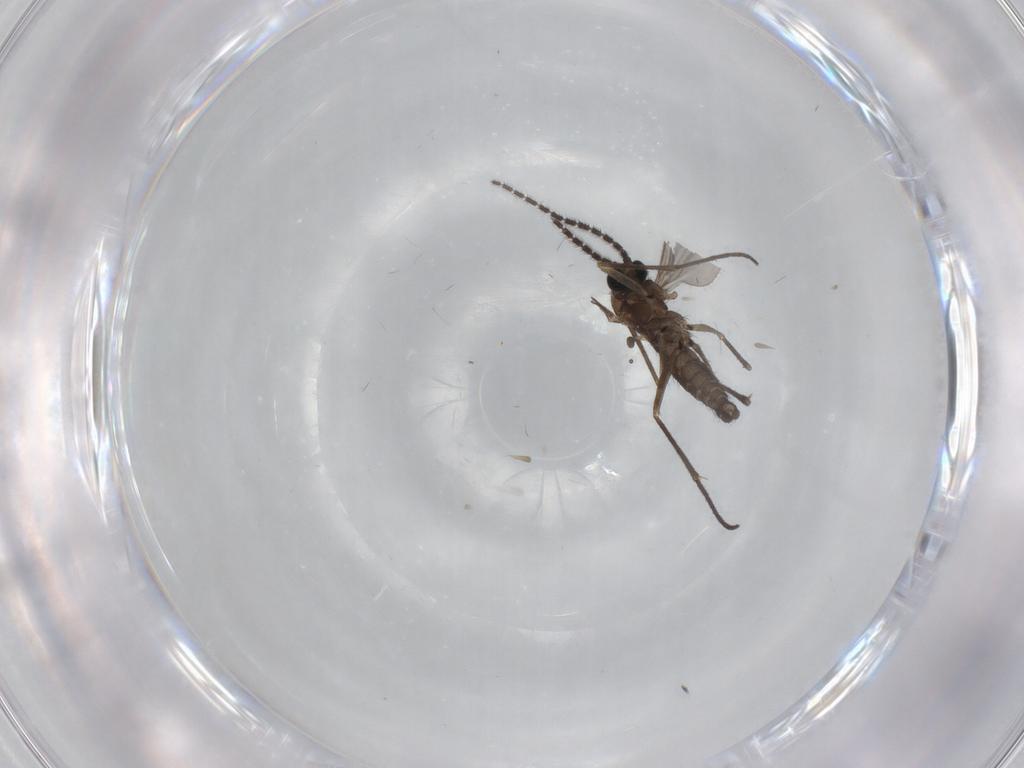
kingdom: Animalia
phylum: Arthropoda
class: Insecta
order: Diptera
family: Sciaridae
